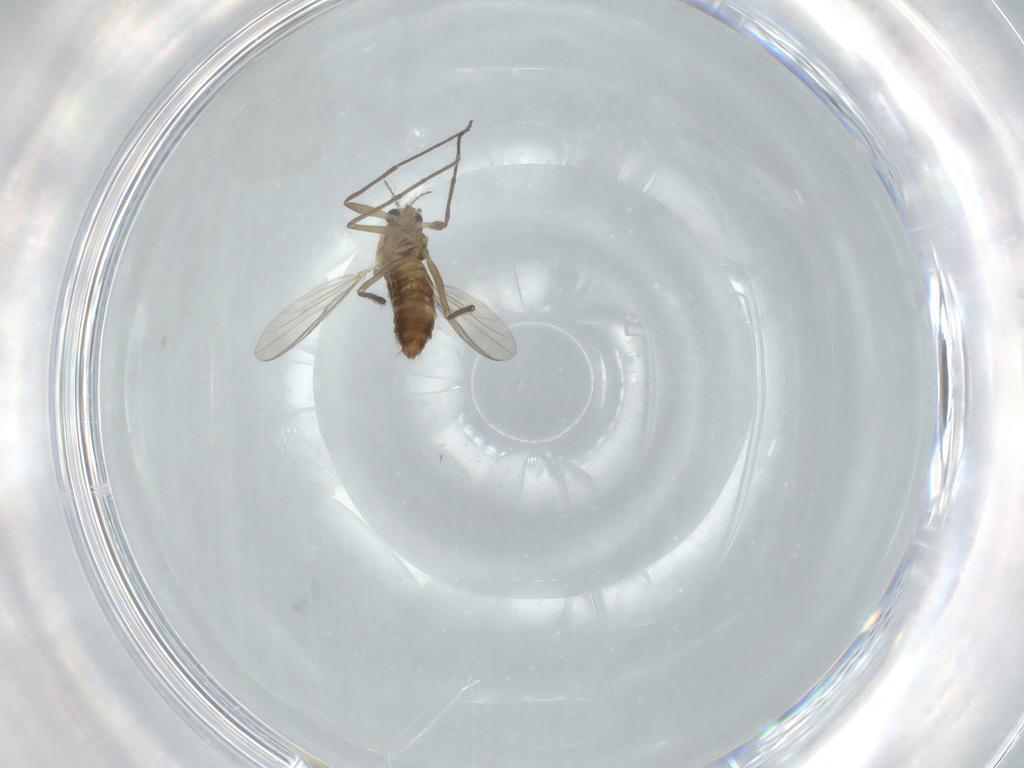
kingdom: Animalia
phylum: Arthropoda
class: Insecta
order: Diptera
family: Chironomidae
